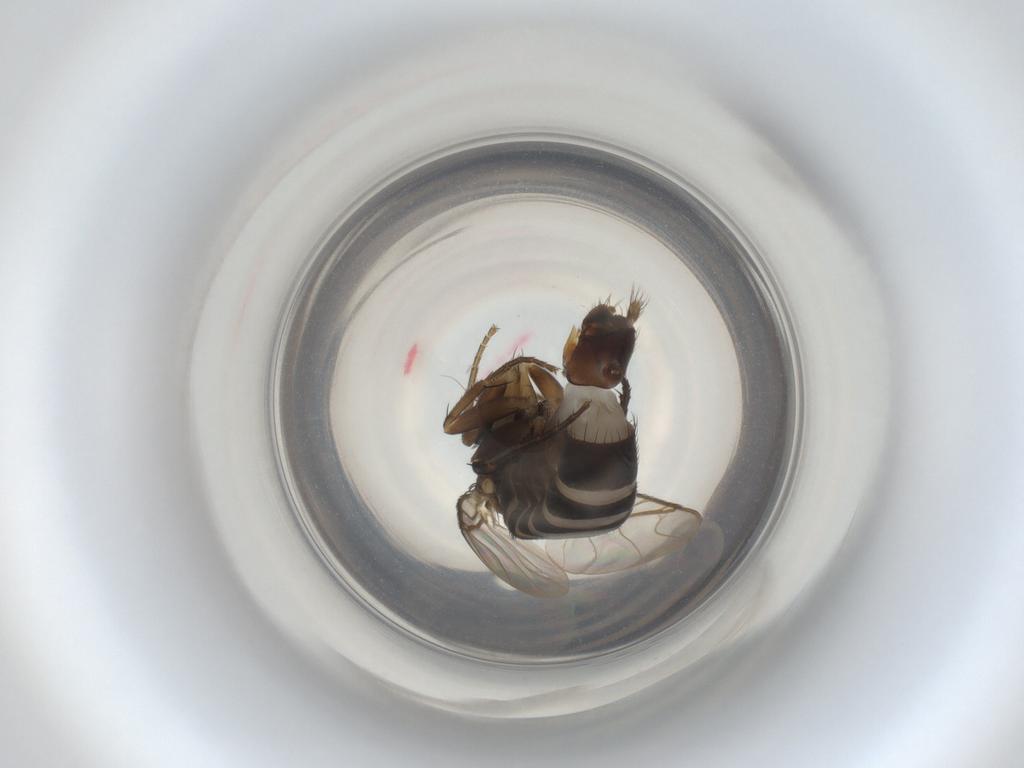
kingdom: Animalia
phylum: Arthropoda
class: Insecta
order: Diptera
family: Phoridae
